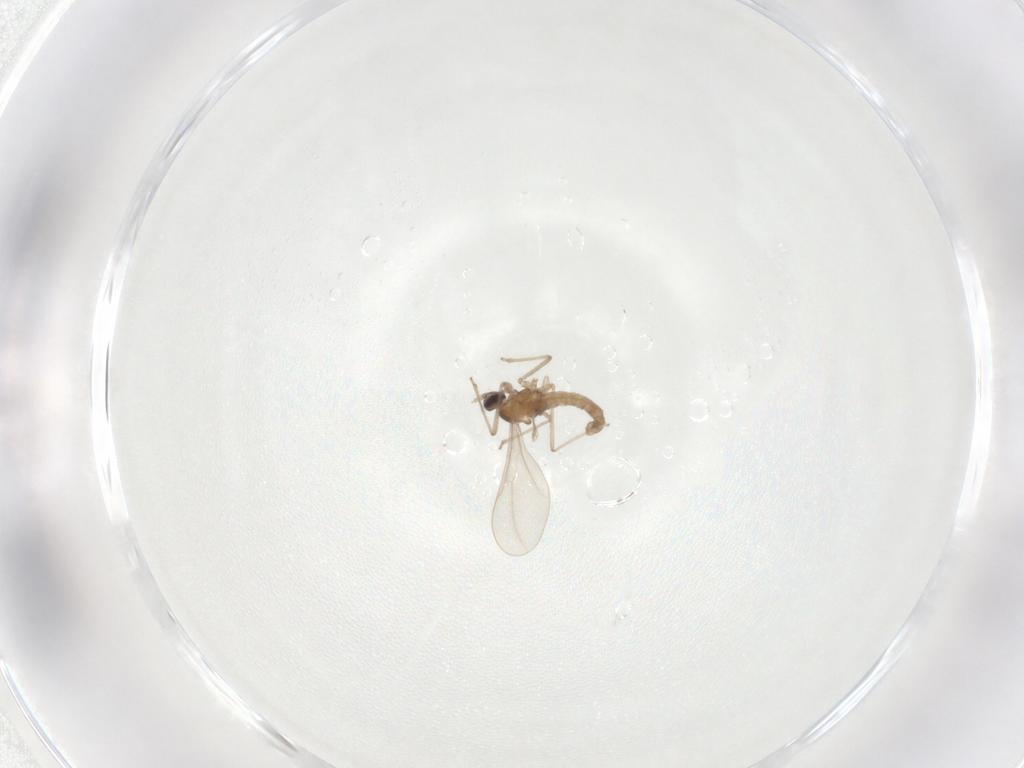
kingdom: Animalia
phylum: Arthropoda
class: Insecta
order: Diptera
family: Cecidomyiidae
